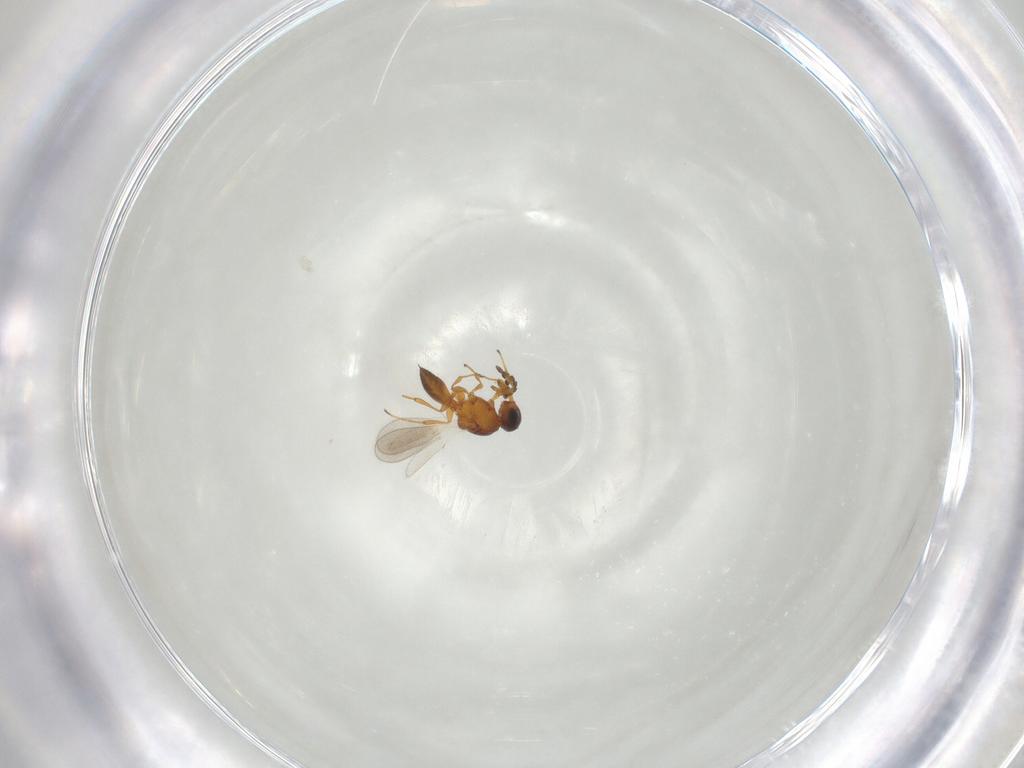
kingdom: Animalia
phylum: Arthropoda
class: Insecta
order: Hymenoptera
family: Platygastridae
